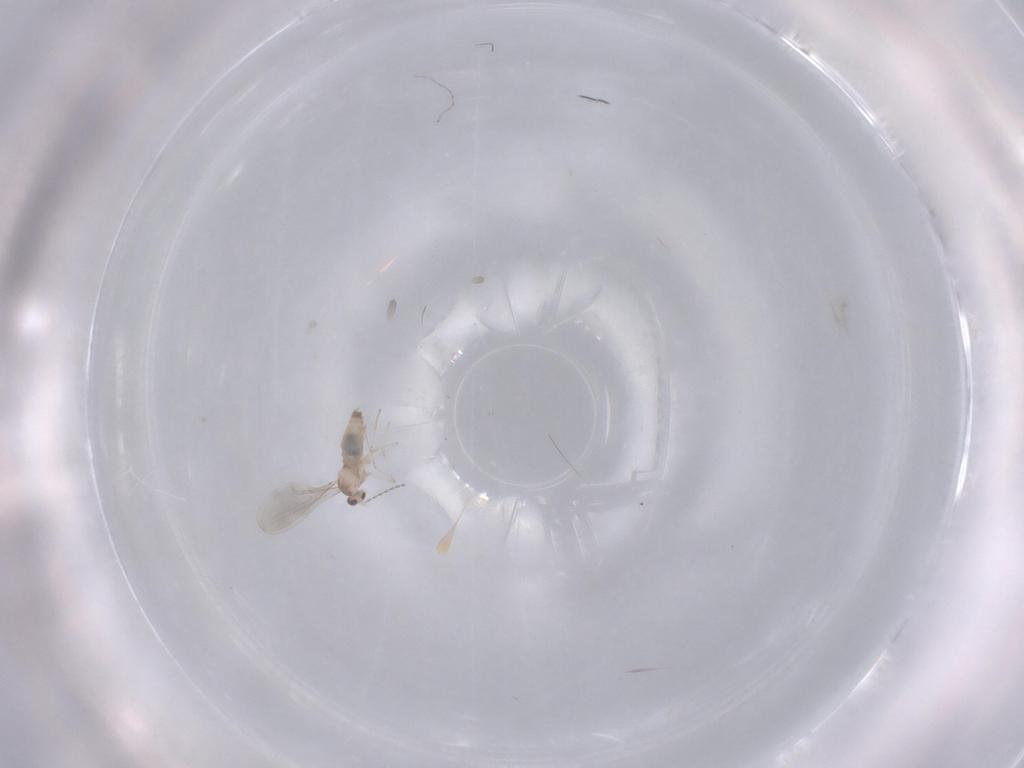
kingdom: Animalia
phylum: Arthropoda
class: Insecta
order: Diptera
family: Cecidomyiidae
